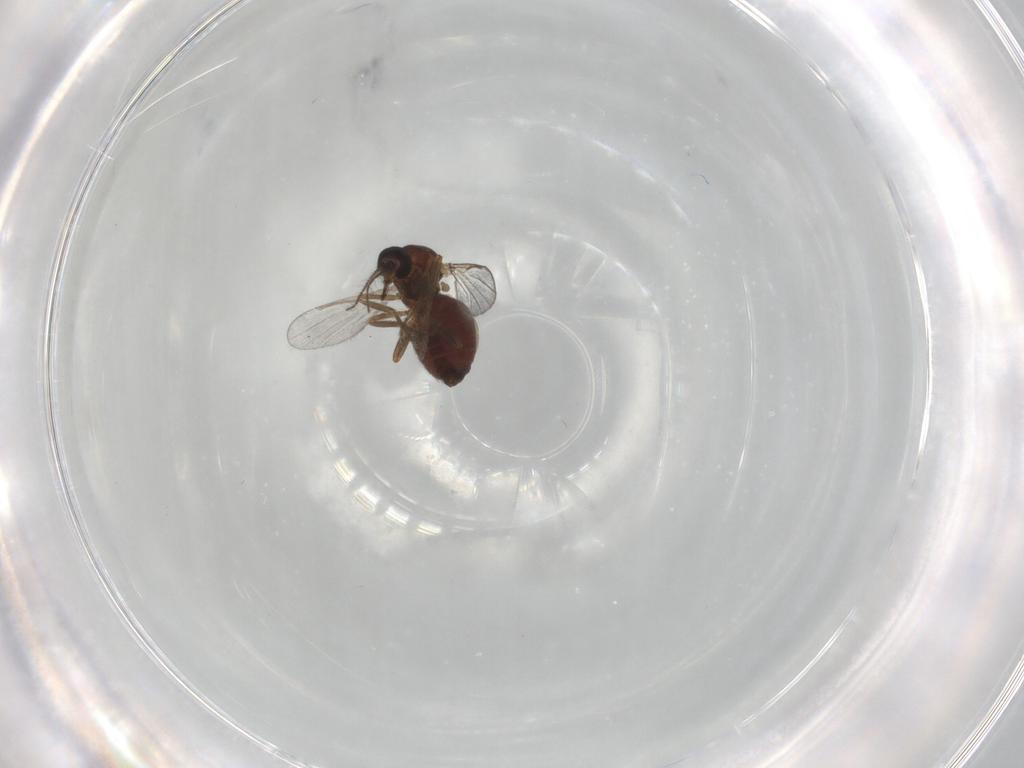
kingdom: Animalia
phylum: Arthropoda
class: Insecta
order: Diptera
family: Ceratopogonidae
